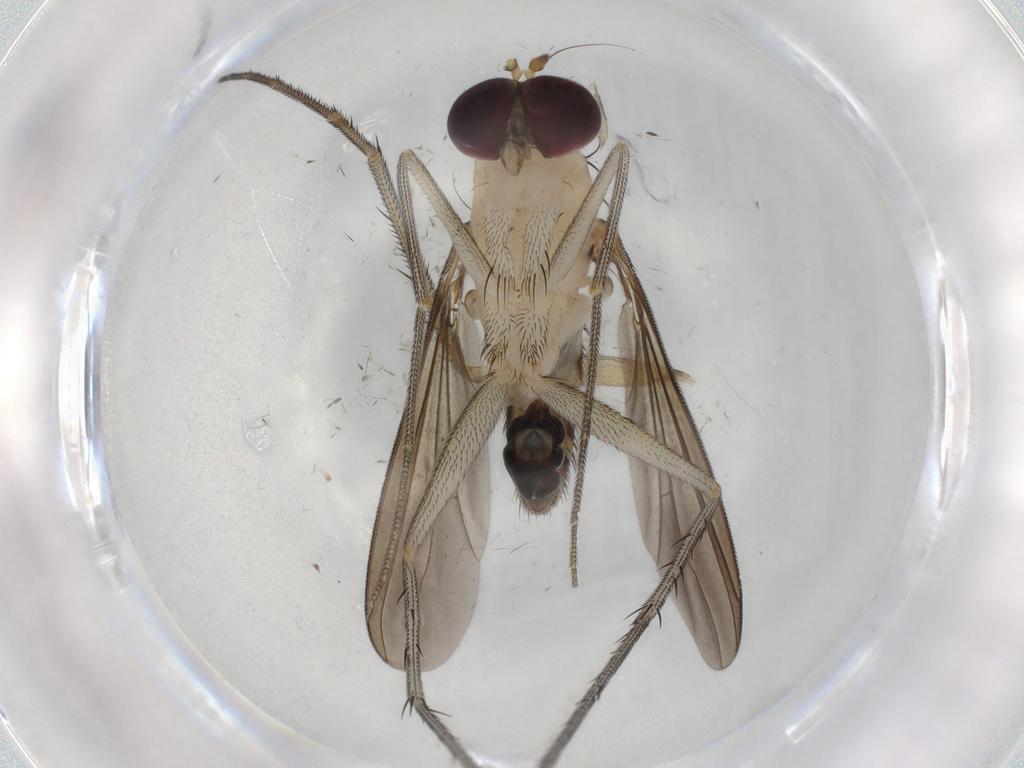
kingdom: Animalia
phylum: Arthropoda
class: Insecta
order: Diptera
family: Dolichopodidae
